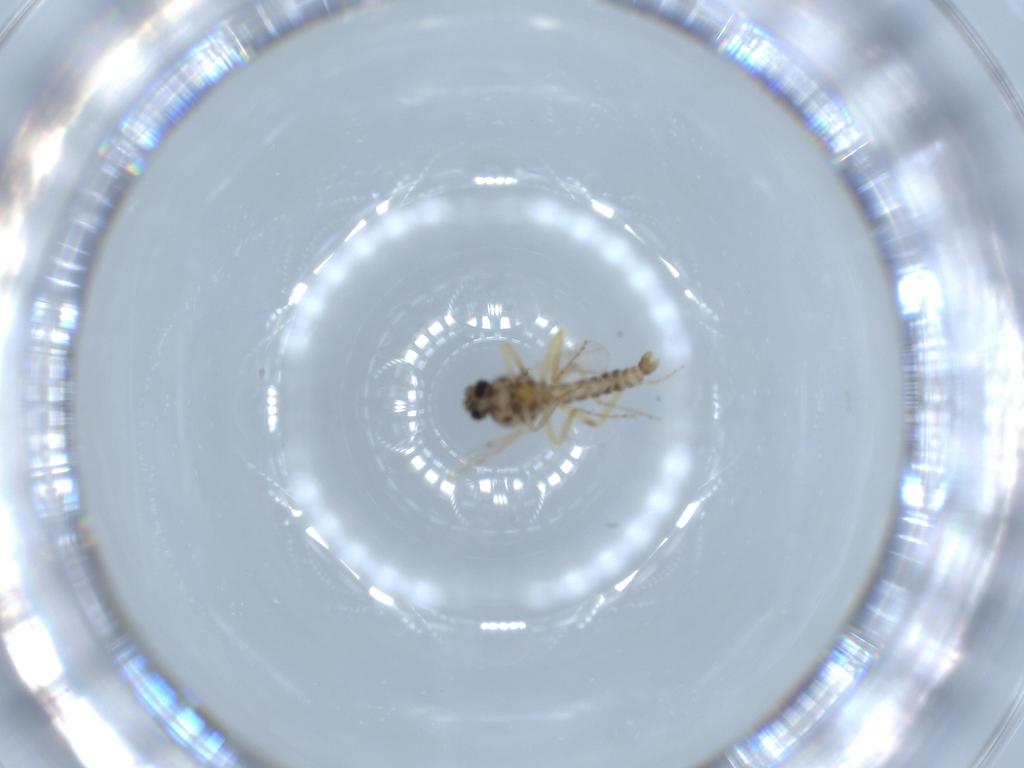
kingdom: Animalia
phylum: Arthropoda
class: Insecta
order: Diptera
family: Ceratopogonidae
